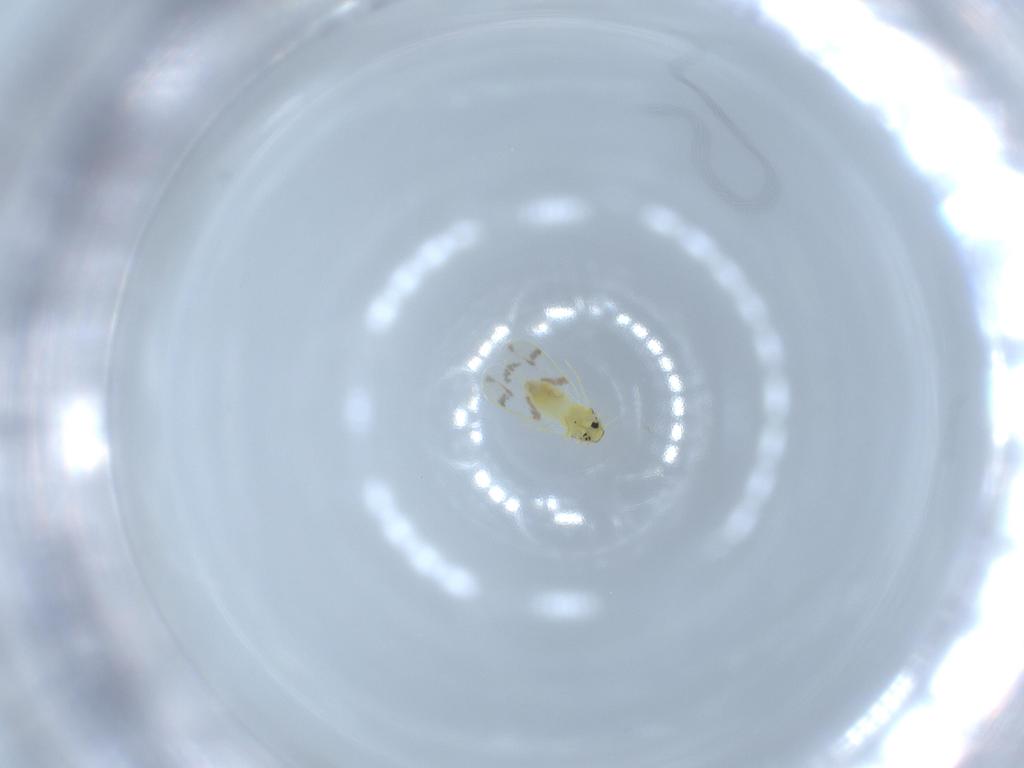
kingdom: Animalia
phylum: Arthropoda
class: Insecta
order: Hemiptera
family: Aleyrodidae
